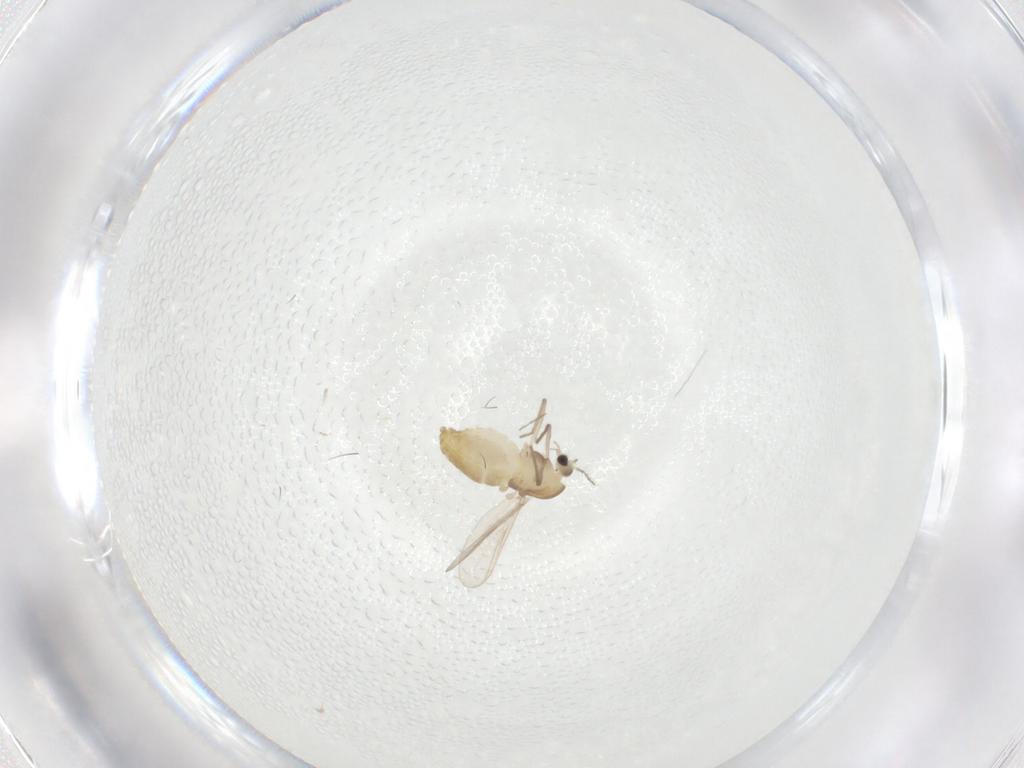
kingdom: Animalia
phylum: Arthropoda
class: Insecta
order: Diptera
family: Chironomidae
